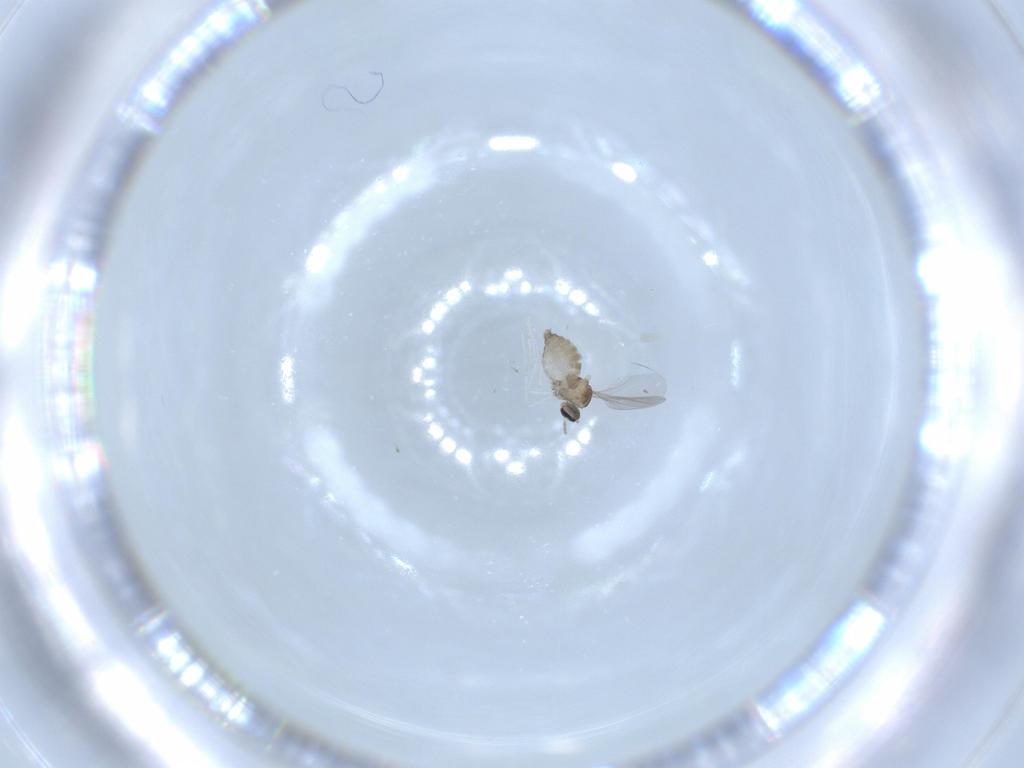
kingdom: Animalia
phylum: Arthropoda
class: Insecta
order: Diptera
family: Cecidomyiidae
